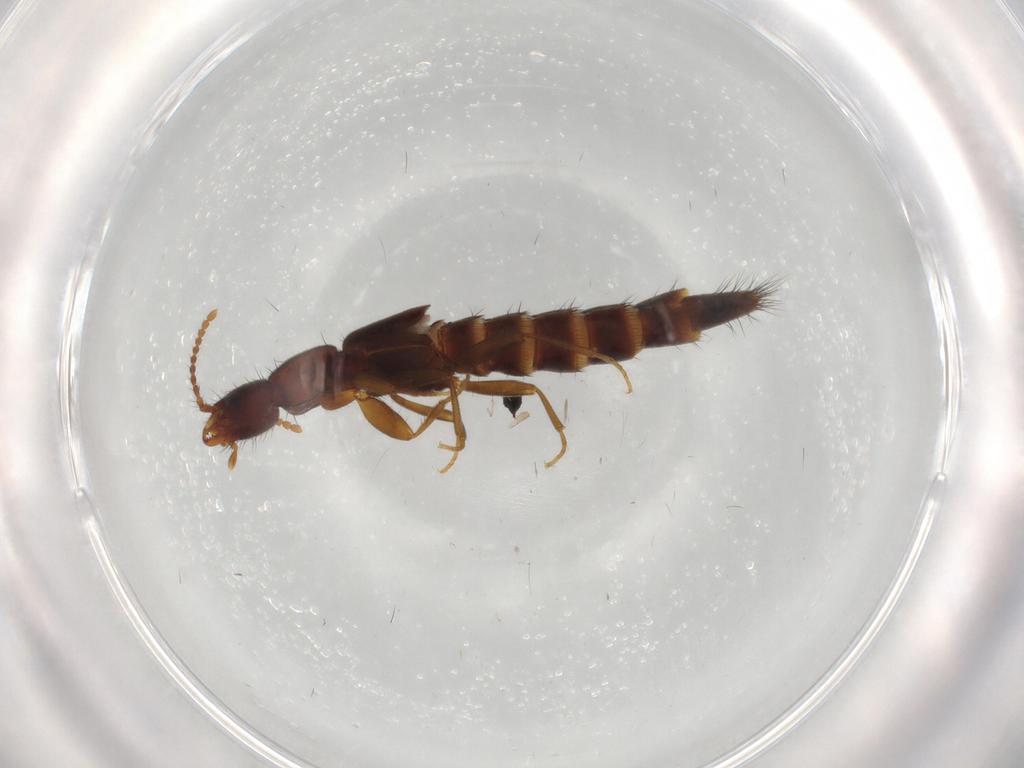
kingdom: Animalia
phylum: Arthropoda
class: Insecta
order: Coleoptera
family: Staphylinidae
